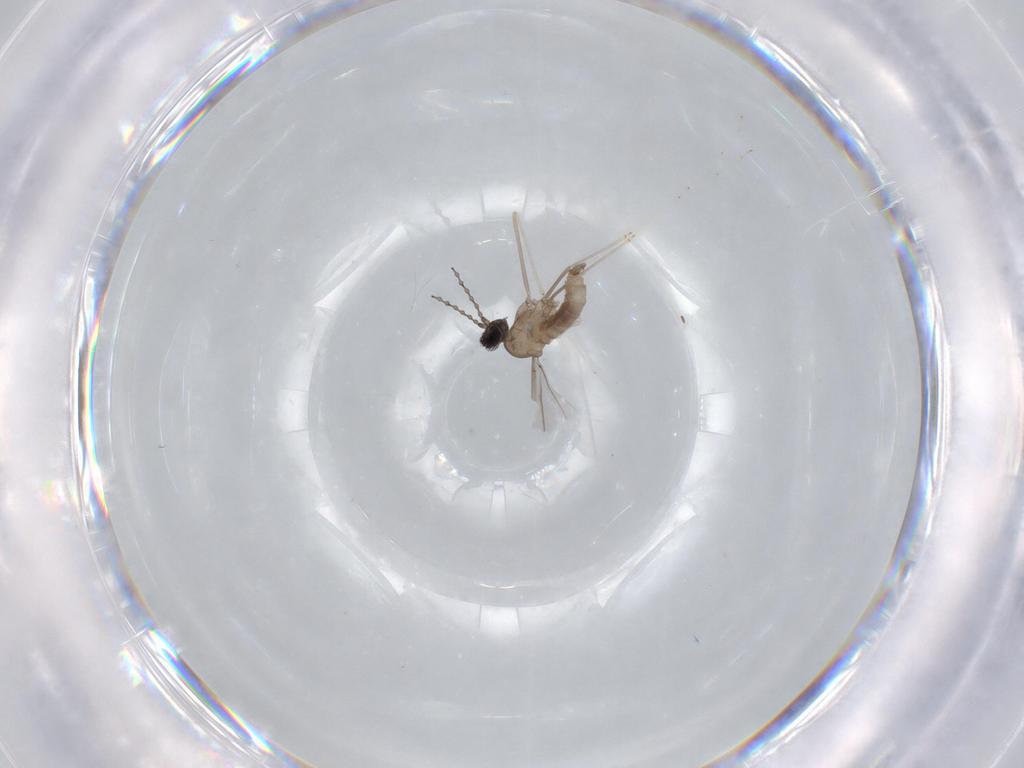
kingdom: Animalia
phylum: Arthropoda
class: Insecta
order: Diptera
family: Cecidomyiidae
